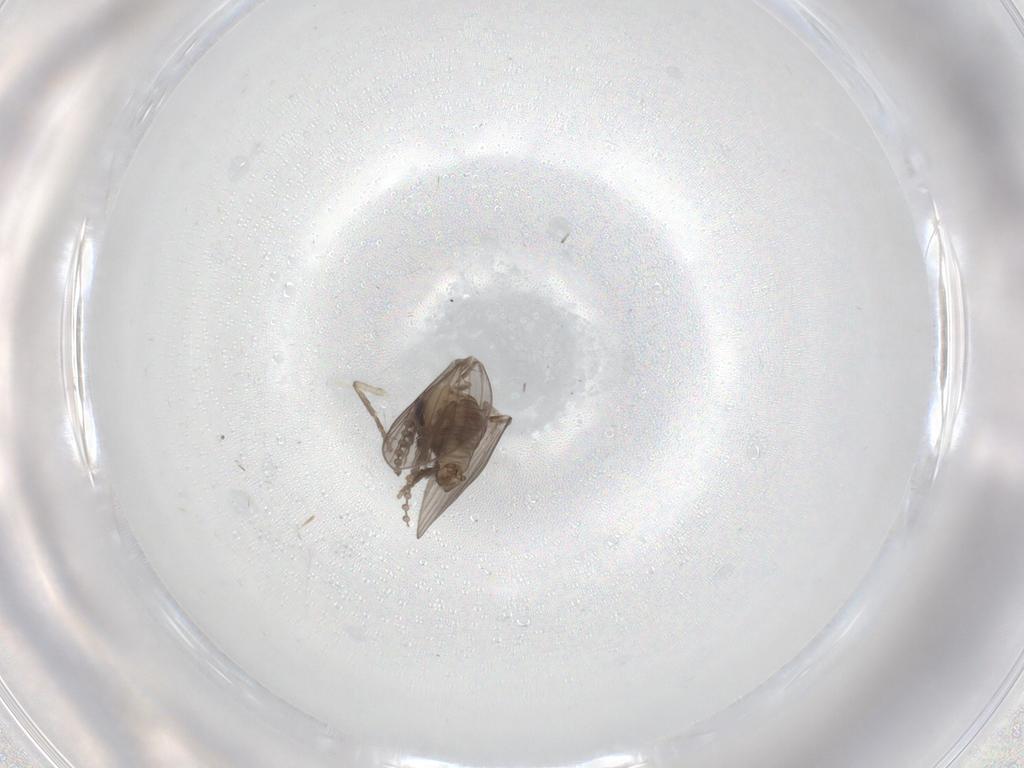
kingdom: Animalia
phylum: Arthropoda
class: Insecta
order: Diptera
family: Psychodidae
